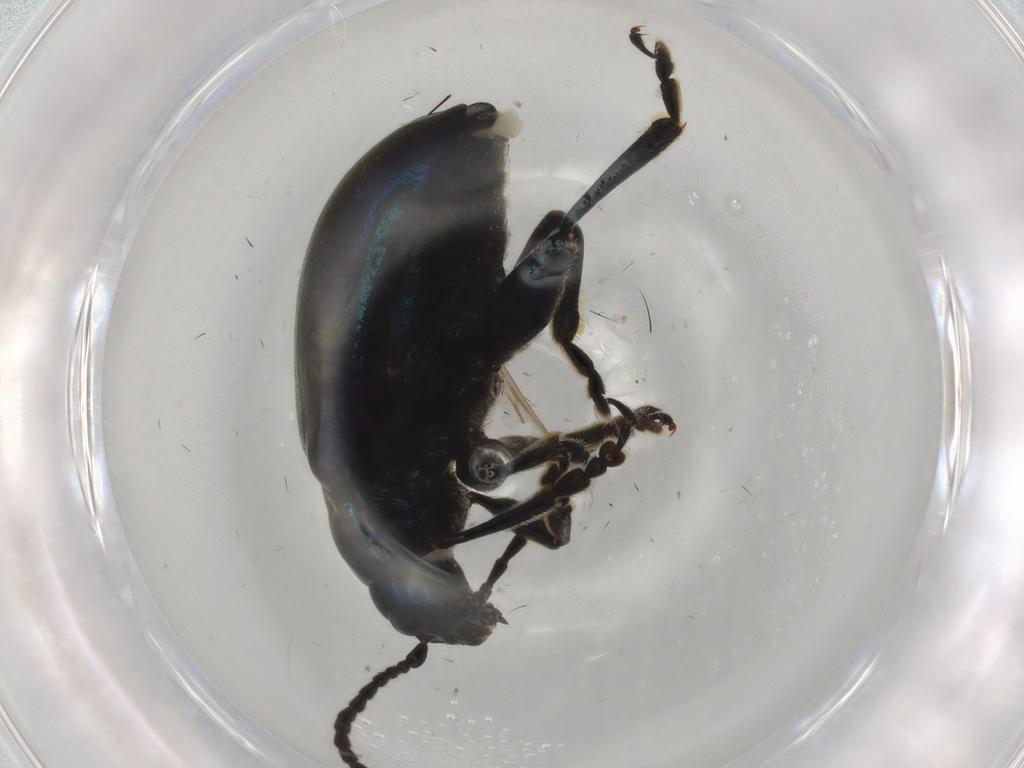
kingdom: Animalia
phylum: Arthropoda
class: Insecta
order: Coleoptera
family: Chrysomelidae
